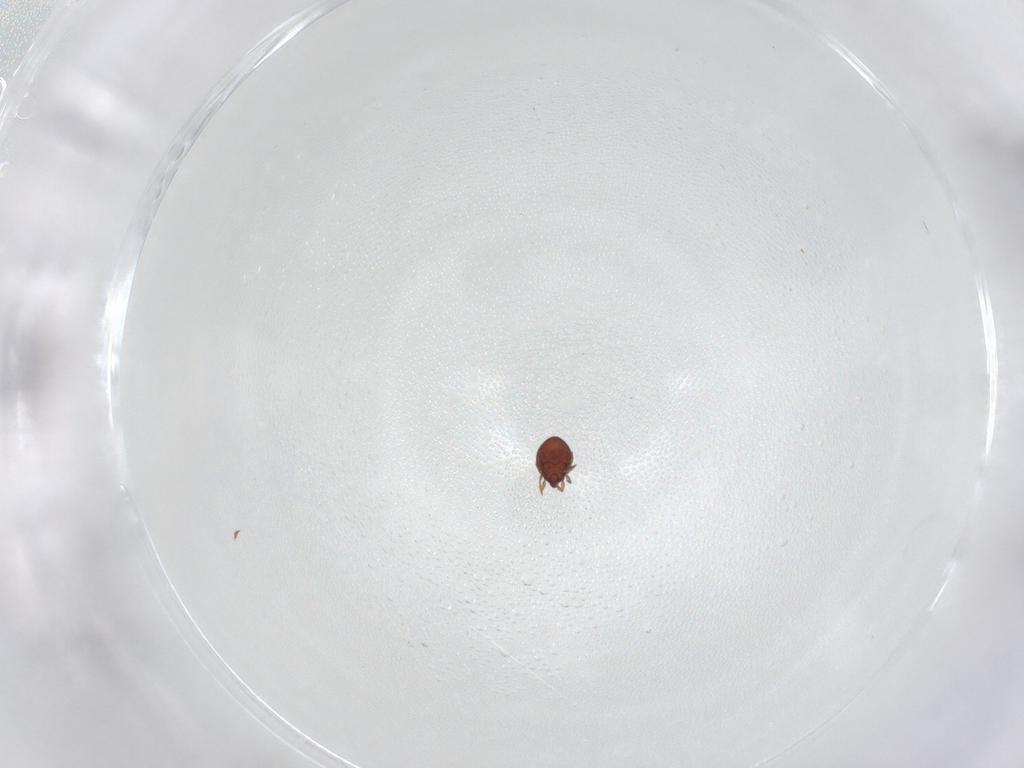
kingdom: Animalia
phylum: Arthropoda
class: Arachnida
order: Sarcoptiformes
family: Peloppiidae
